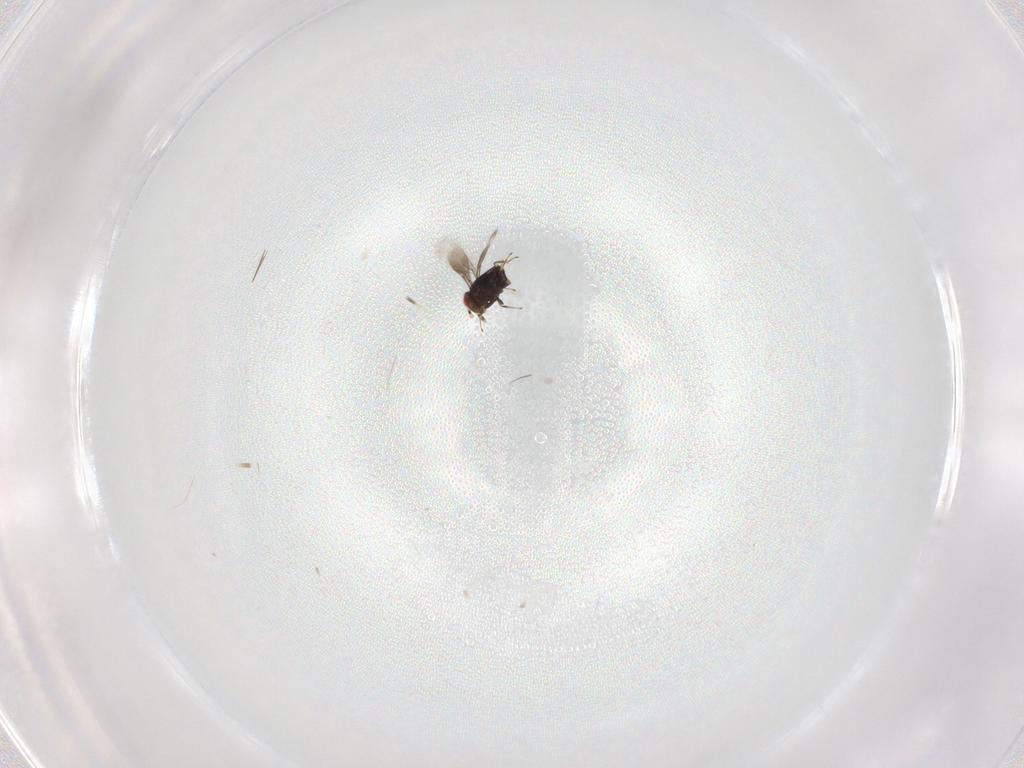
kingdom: Animalia
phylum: Arthropoda
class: Insecta
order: Hymenoptera
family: Azotidae
